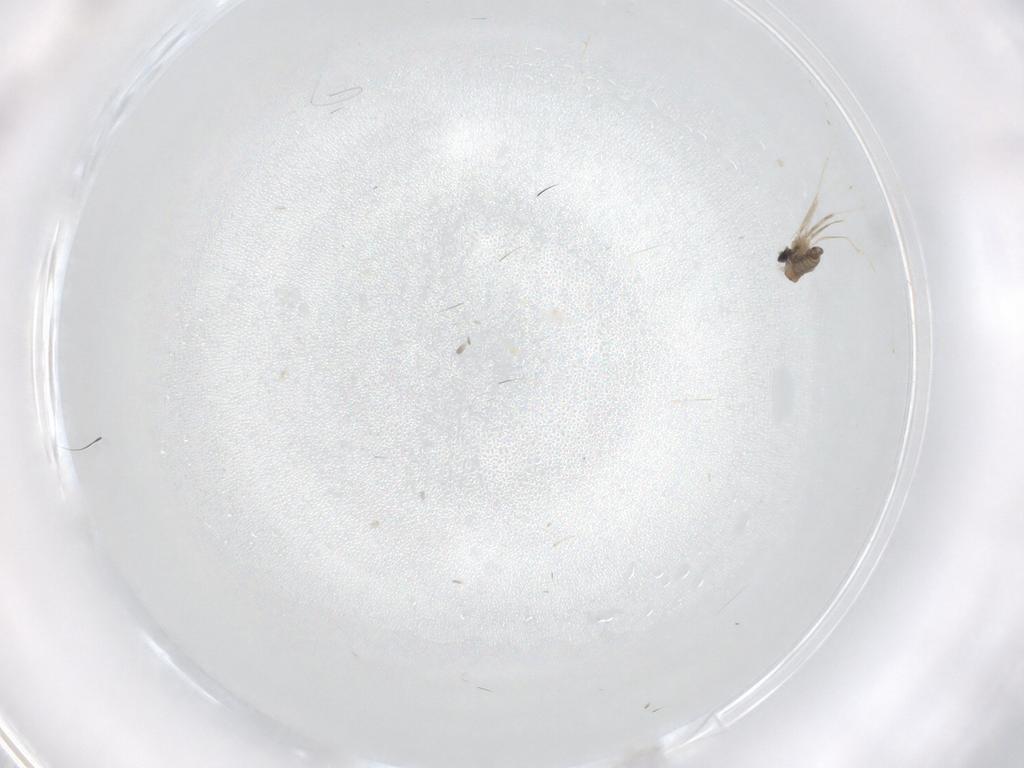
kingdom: Animalia
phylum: Arthropoda
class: Insecta
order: Diptera
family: Cecidomyiidae
